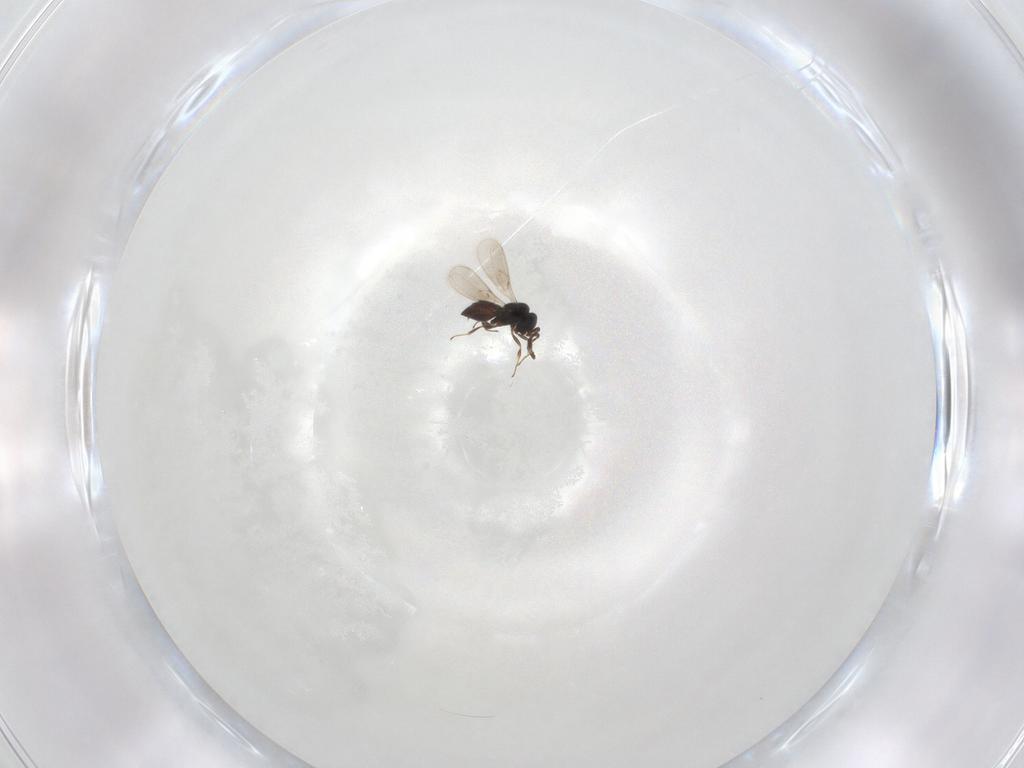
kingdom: Animalia
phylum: Arthropoda
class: Insecta
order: Hymenoptera
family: Scelionidae
